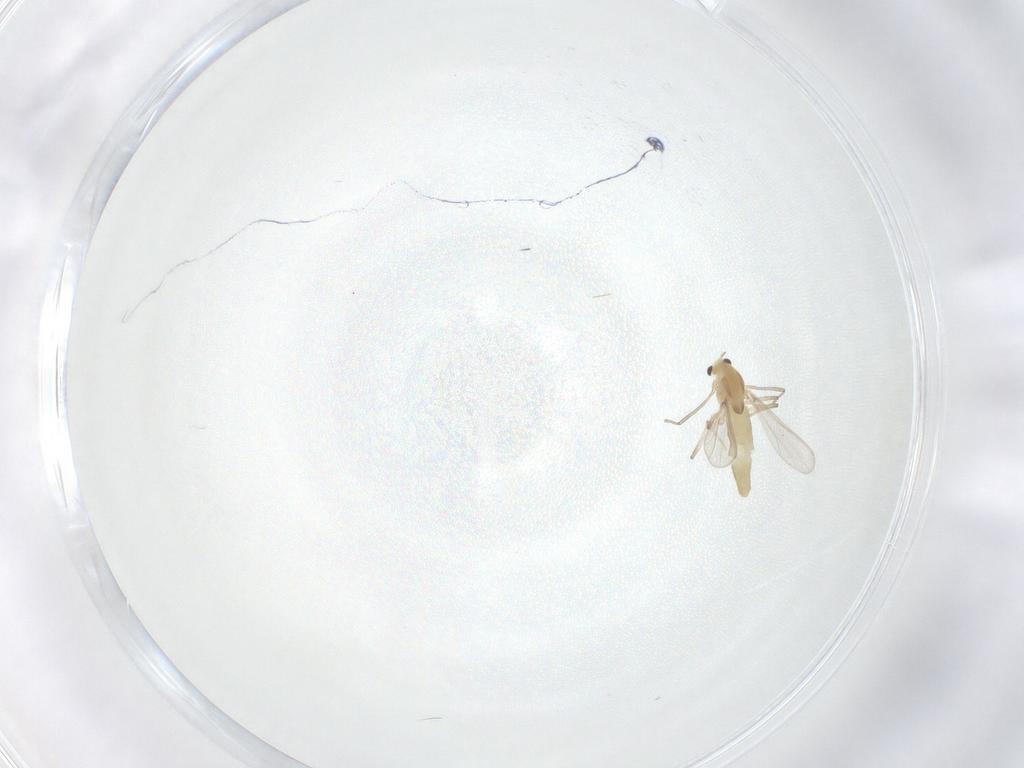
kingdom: Animalia
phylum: Arthropoda
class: Insecta
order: Diptera
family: Chironomidae
